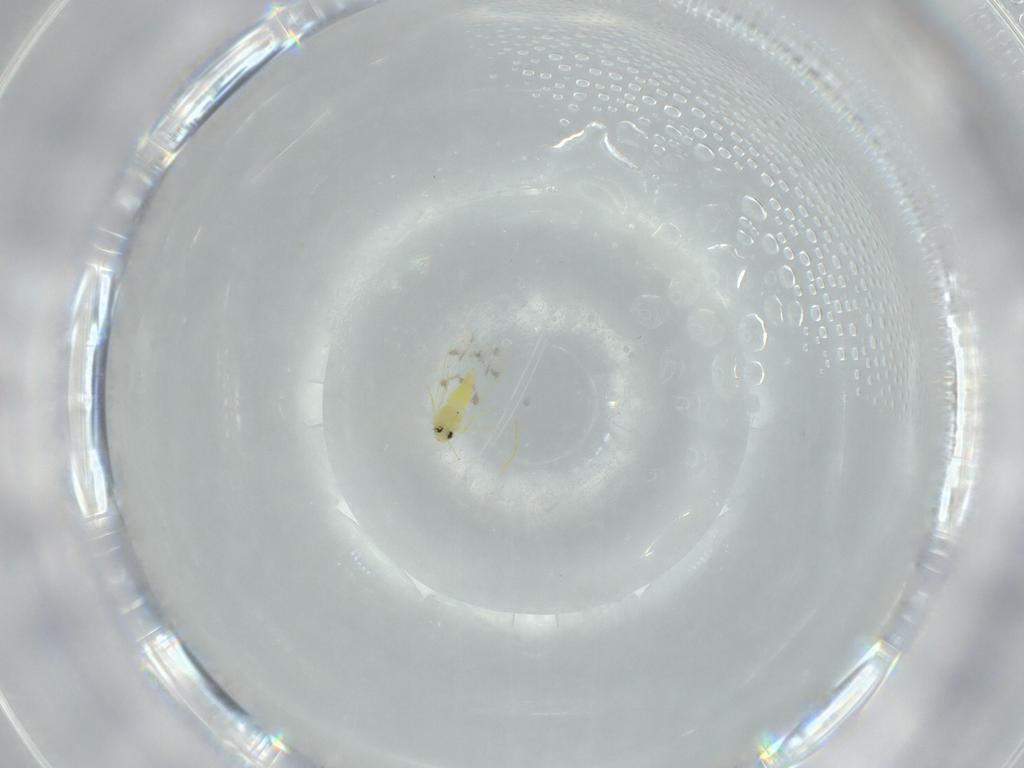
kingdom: Animalia
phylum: Arthropoda
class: Insecta
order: Hemiptera
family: Aleyrodidae
